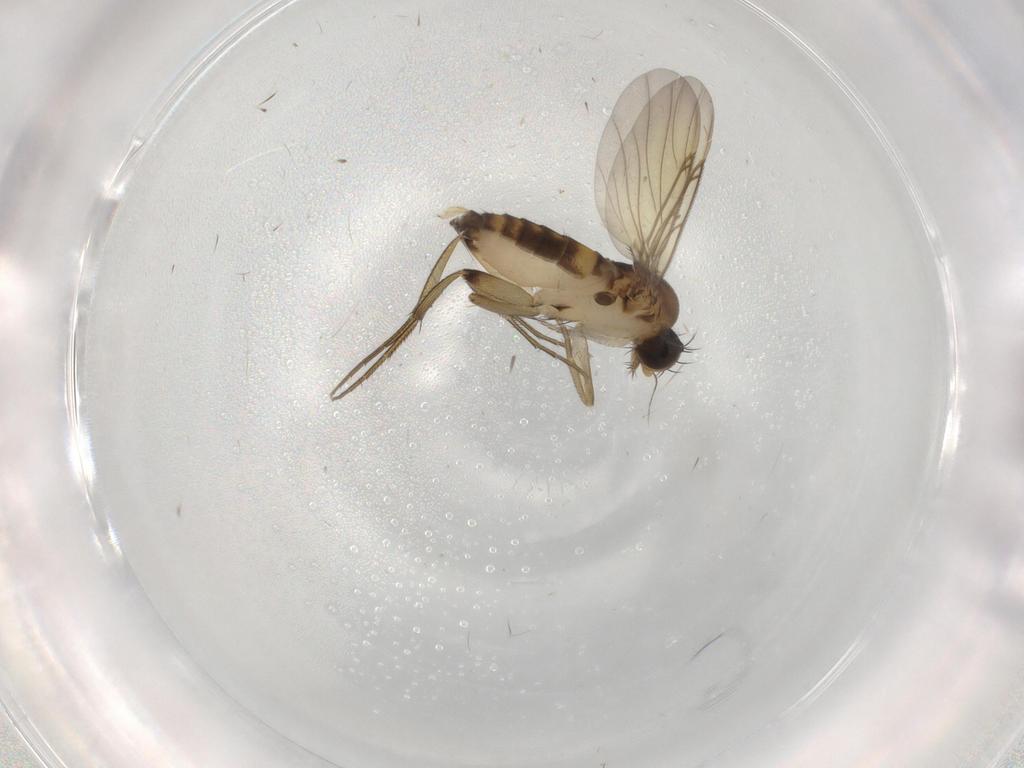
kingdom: Animalia
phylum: Arthropoda
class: Insecta
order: Diptera
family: Phoridae
